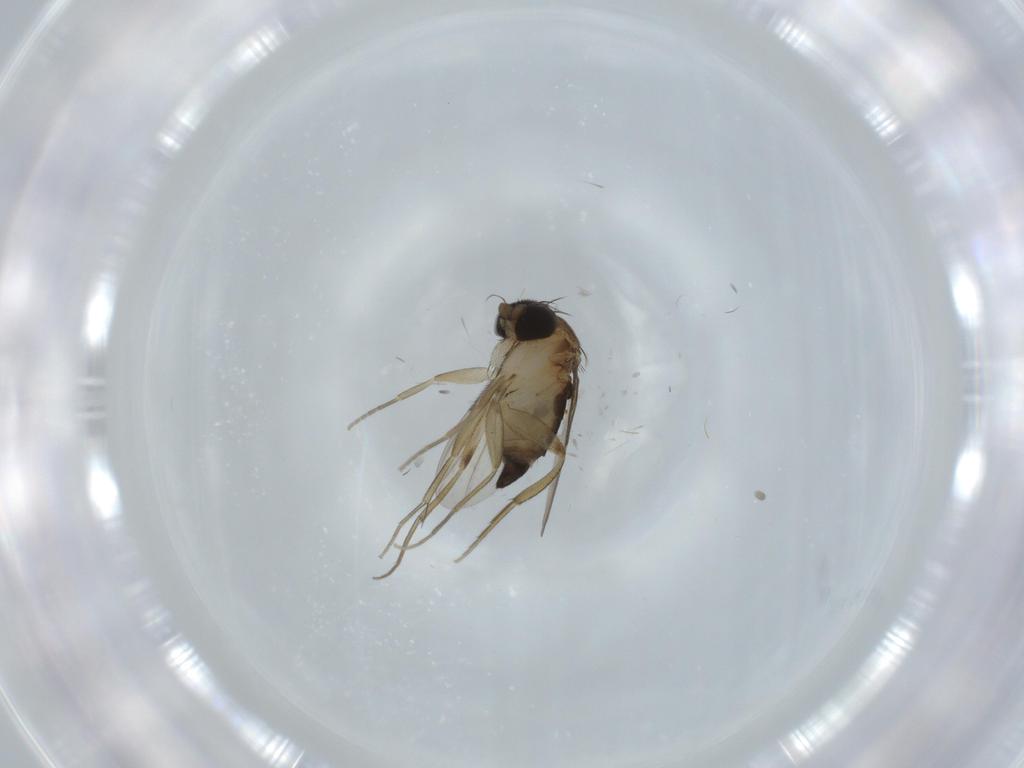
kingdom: Animalia
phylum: Arthropoda
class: Insecta
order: Diptera
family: Phoridae
